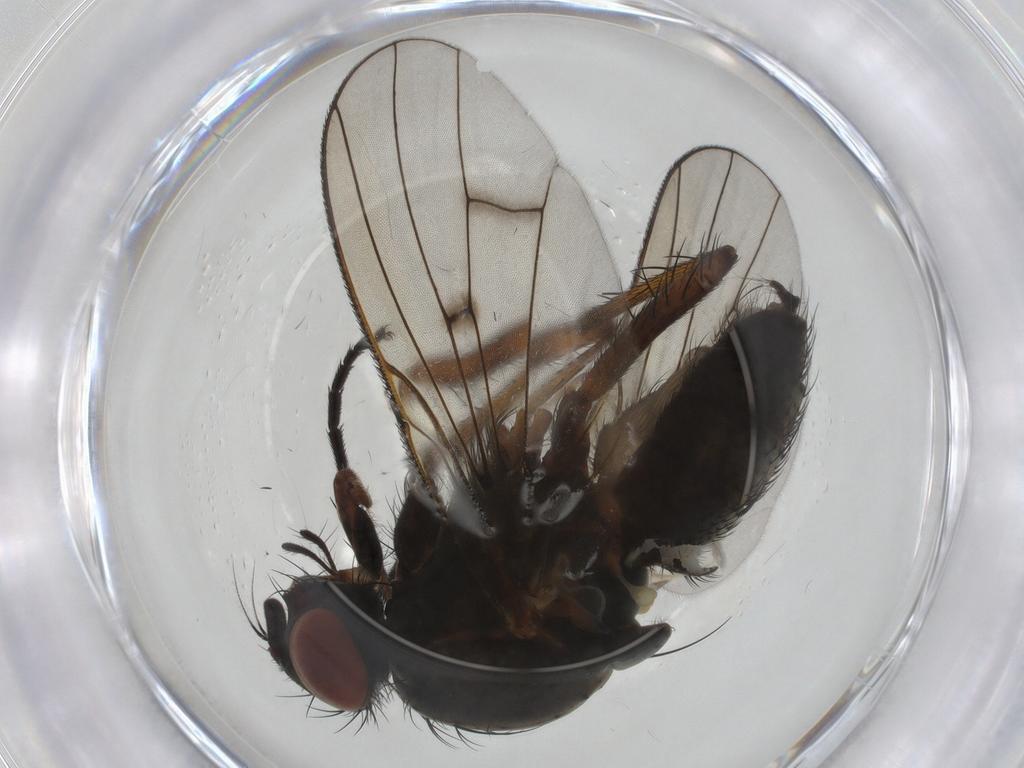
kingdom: Animalia
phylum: Arthropoda
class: Insecta
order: Diptera
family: Anthomyiidae
